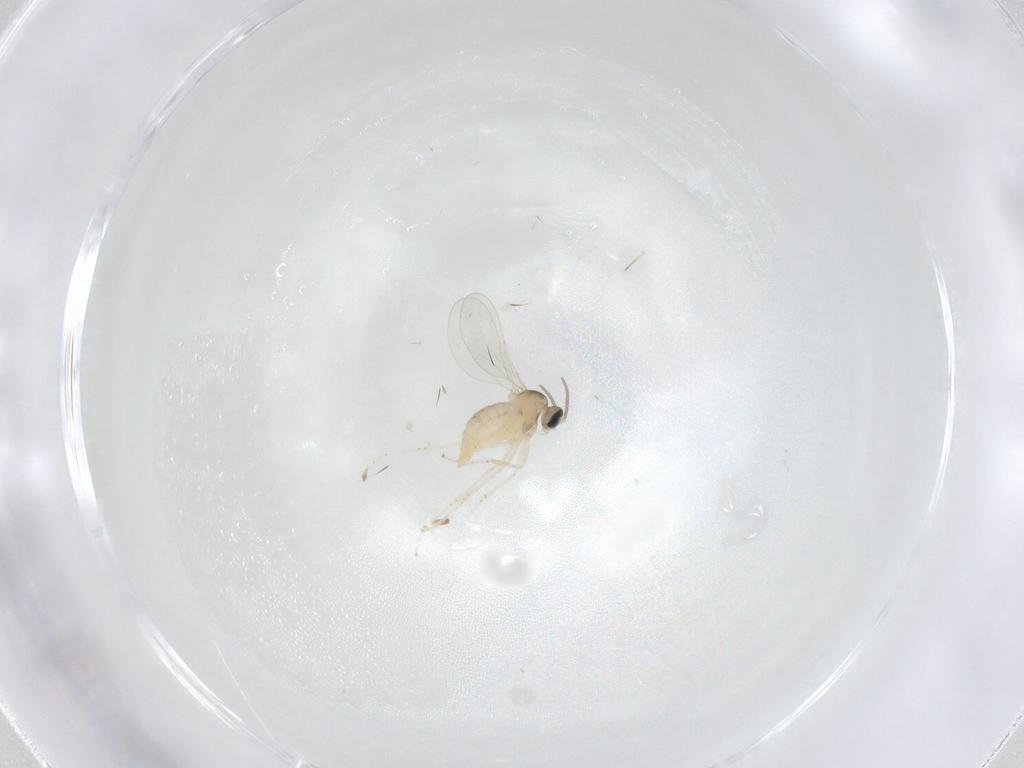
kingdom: Animalia
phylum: Arthropoda
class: Insecta
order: Diptera
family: Cecidomyiidae
